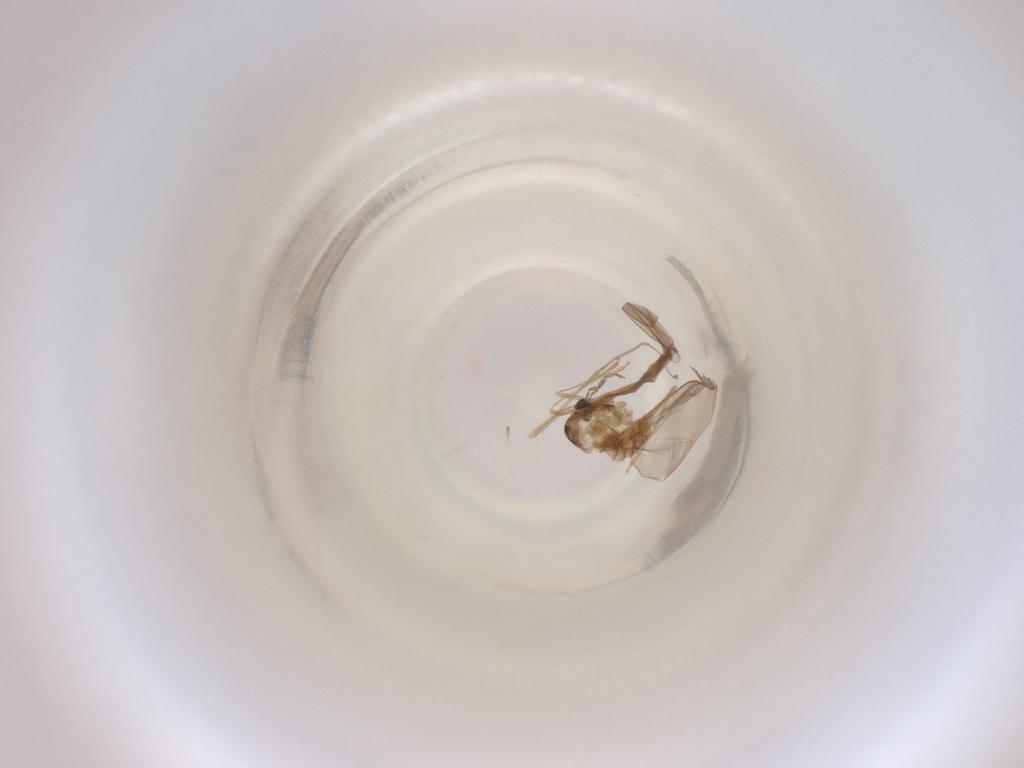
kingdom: Animalia
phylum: Arthropoda
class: Insecta
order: Diptera
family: Cecidomyiidae
